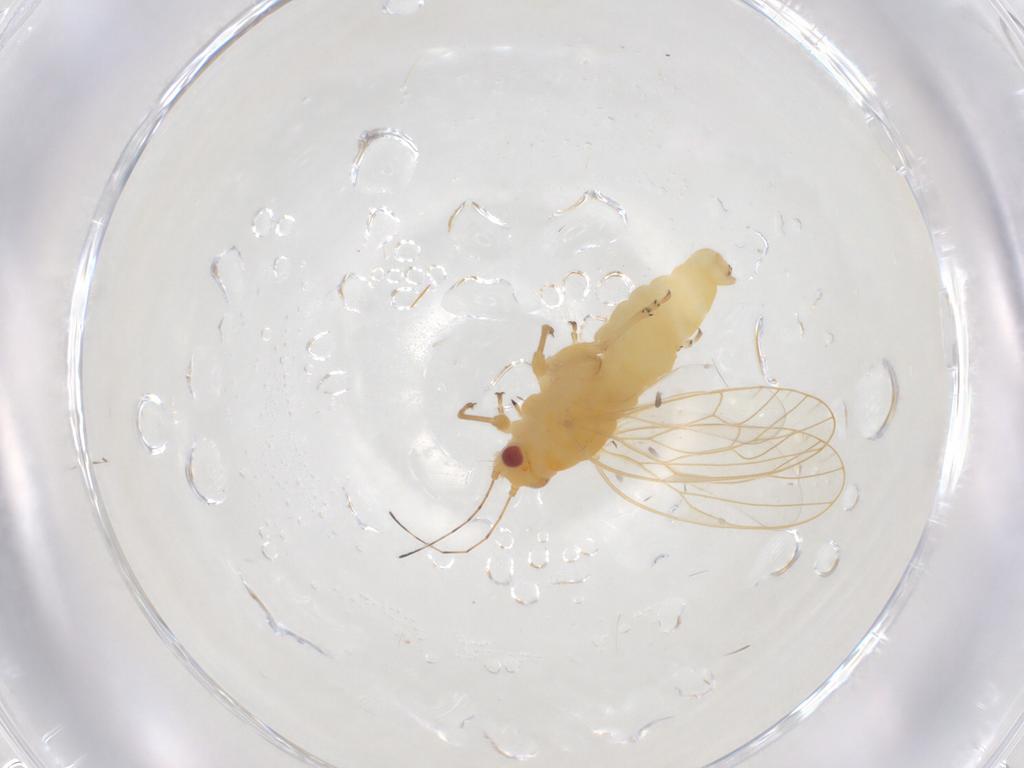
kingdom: Animalia
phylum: Arthropoda
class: Insecta
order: Hemiptera
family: Psyllidae
